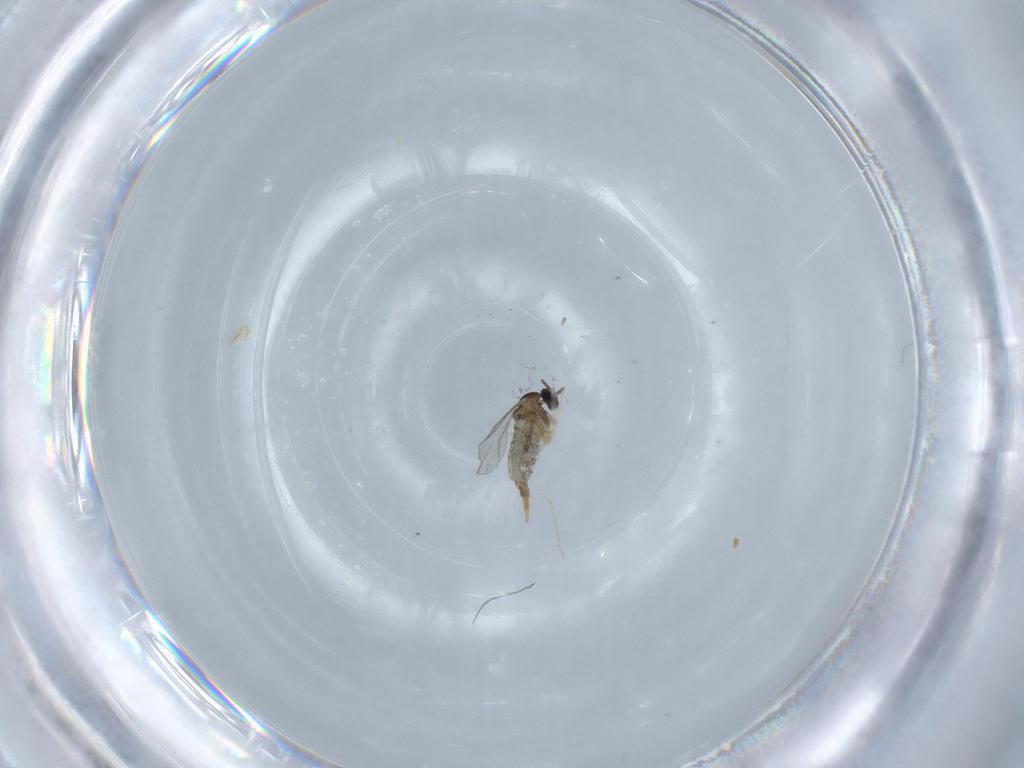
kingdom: Animalia
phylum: Arthropoda
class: Insecta
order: Diptera
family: Cecidomyiidae
